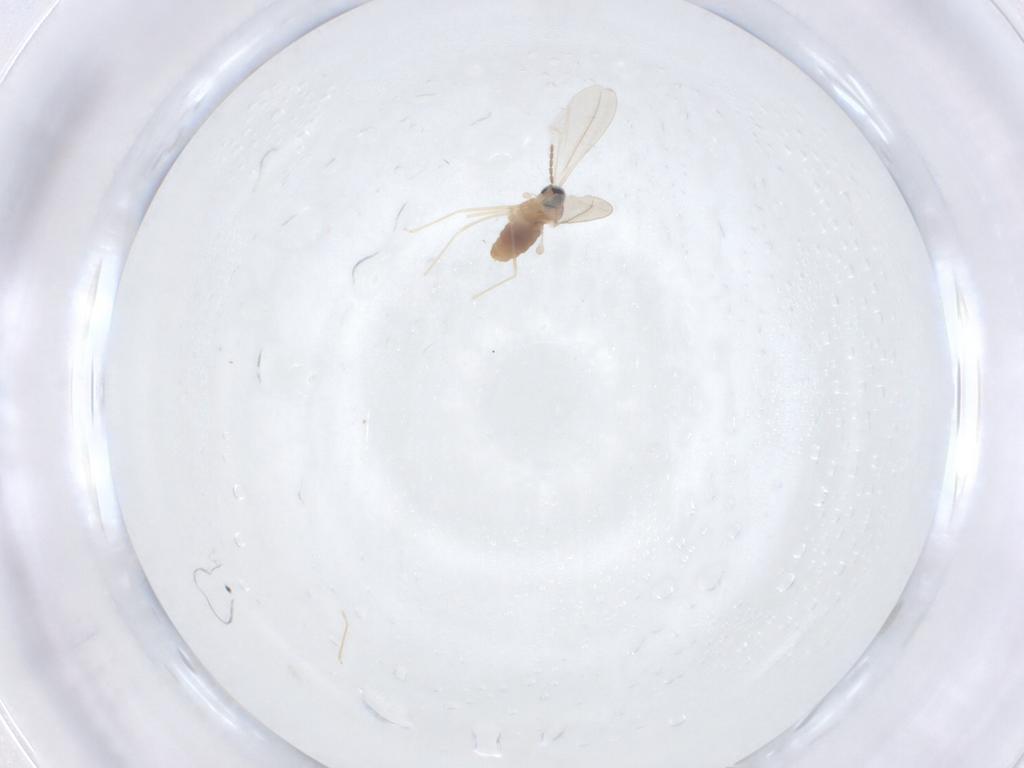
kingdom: Animalia
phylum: Arthropoda
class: Insecta
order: Diptera
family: Cecidomyiidae
